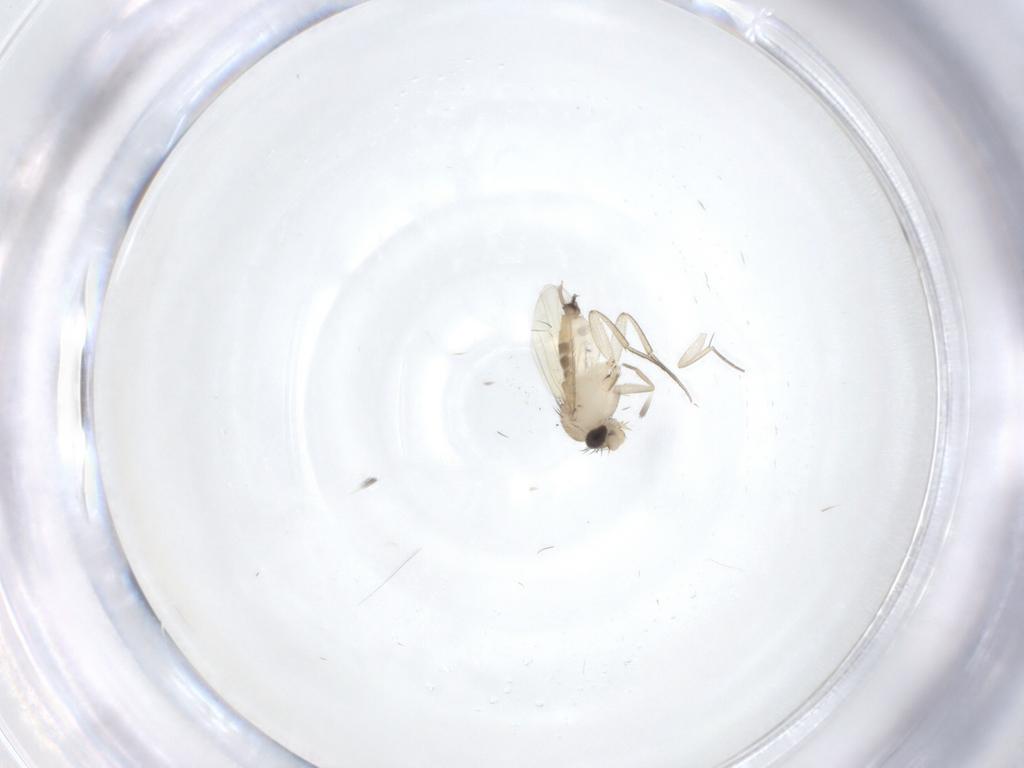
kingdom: Animalia
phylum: Arthropoda
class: Insecta
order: Diptera
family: Phoridae
